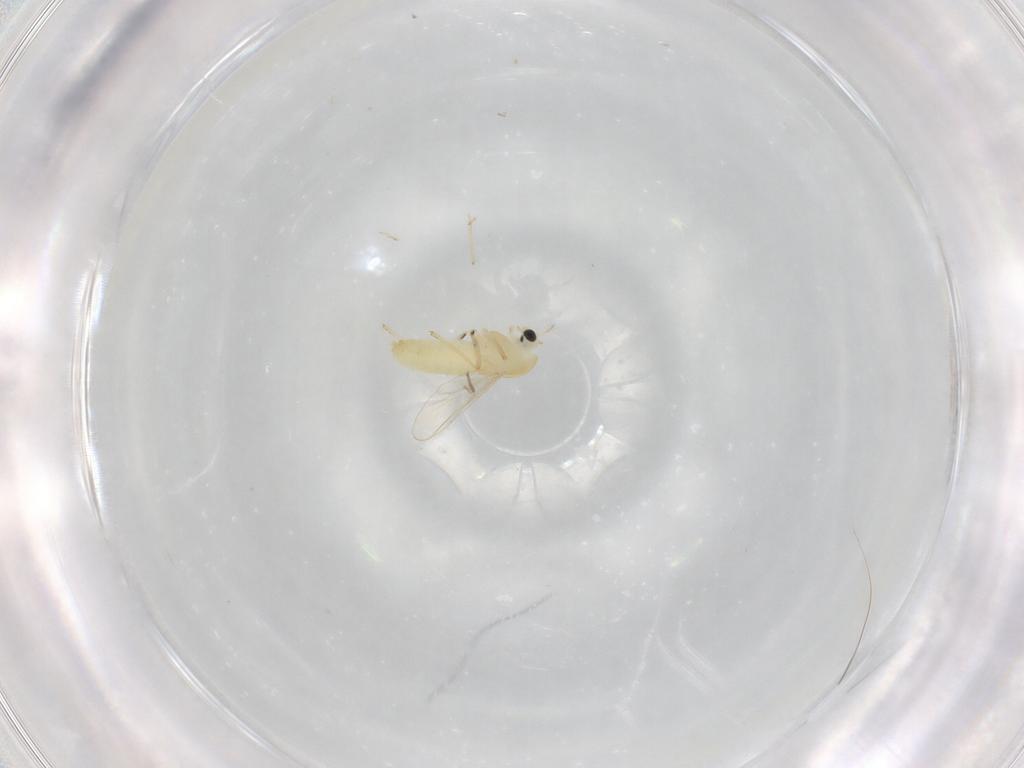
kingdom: Animalia
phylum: Arthropoda
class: Insecta
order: Diptera
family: Chironomidae
